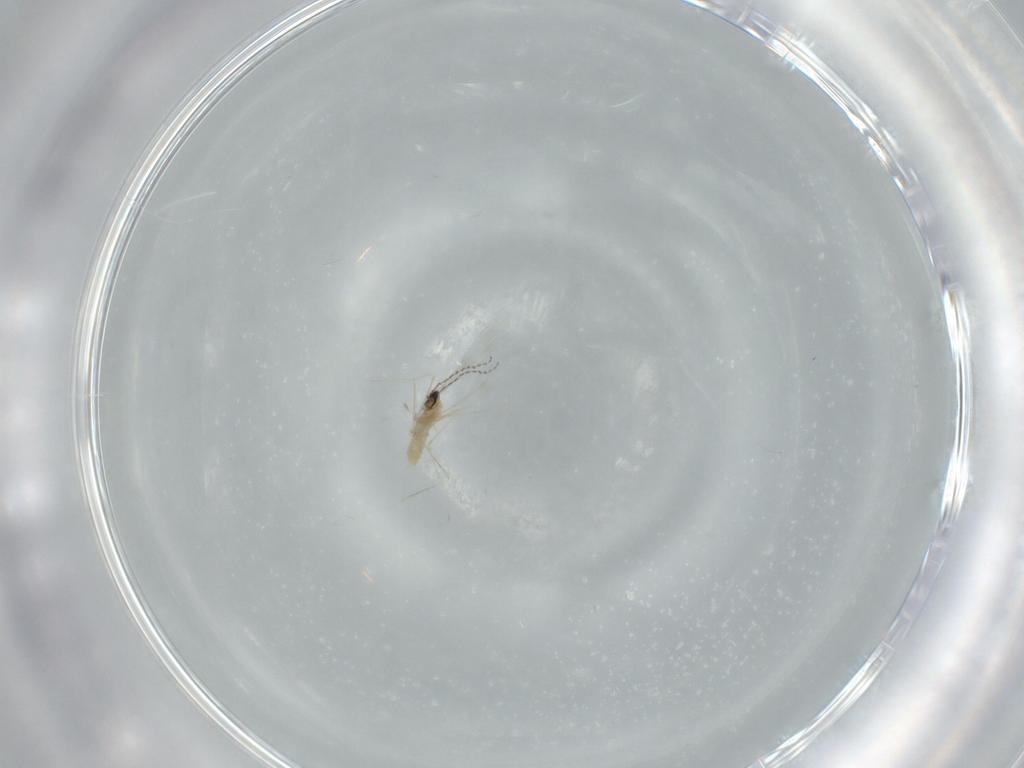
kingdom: Animalia
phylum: Arthropoda
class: Insecta
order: Diptera
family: Cecidomyiidae
